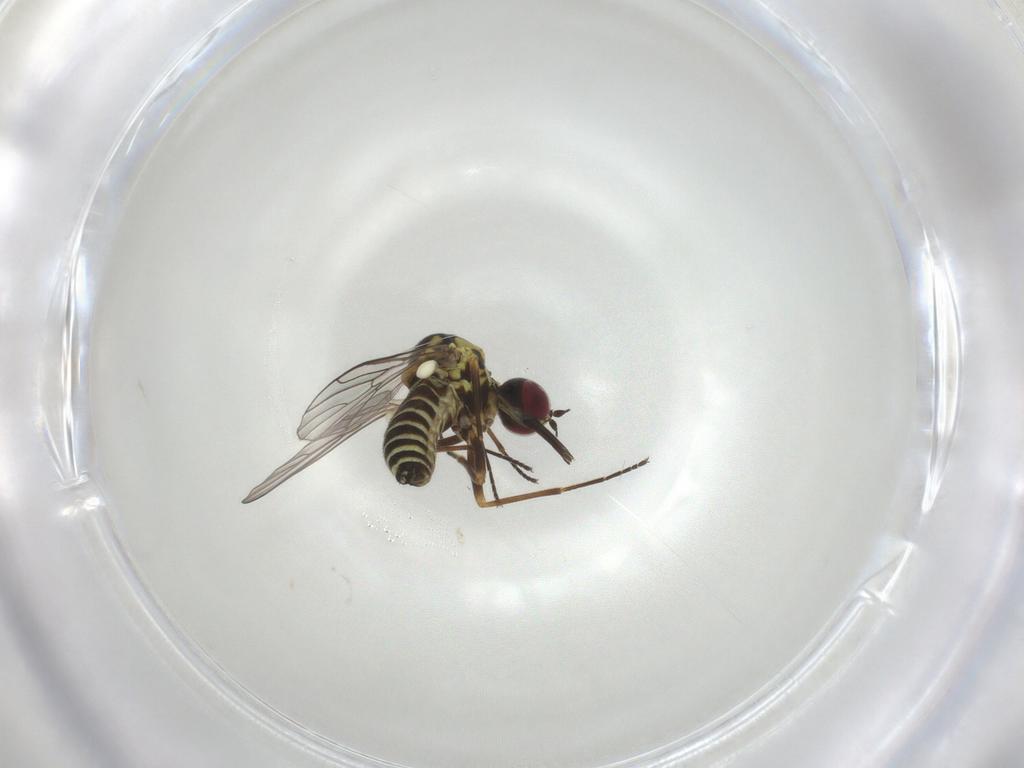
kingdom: Animalia
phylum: Arthropoda
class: Insecta
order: Diptera
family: Bombyliidae
